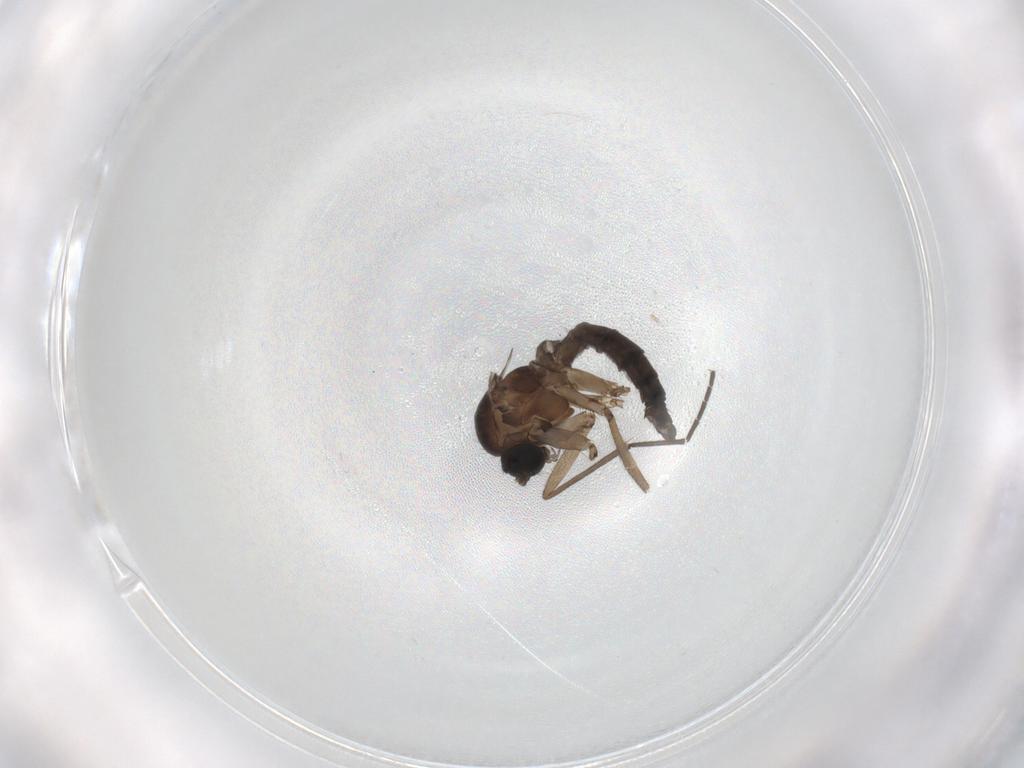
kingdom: Animalia
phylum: Arthropoda
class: Insecta
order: Diptera
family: Sciaridae
